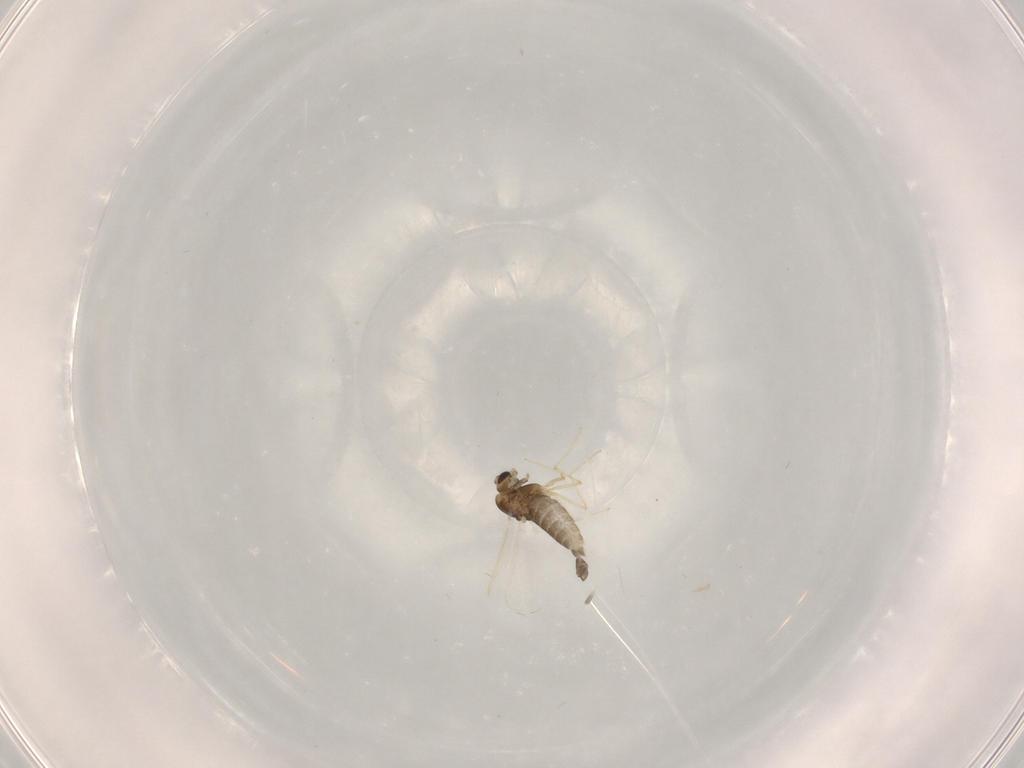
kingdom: Animalia
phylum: Arthropoda
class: Insecta
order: Diptera
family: Chironomidae
